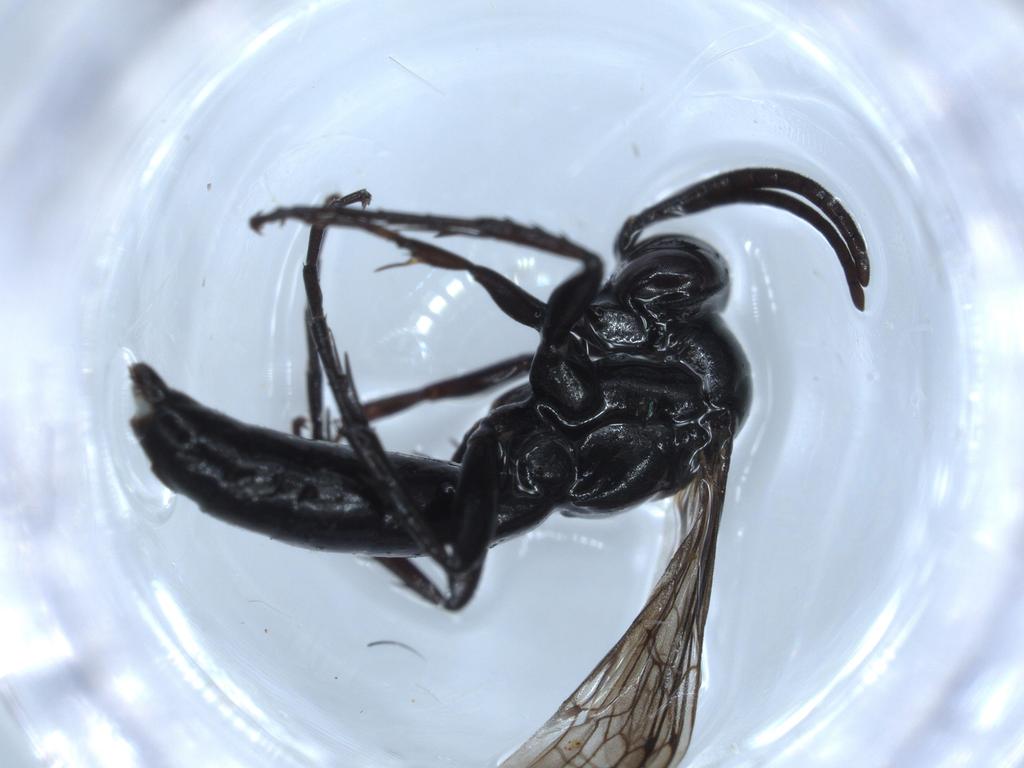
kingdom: Animalia
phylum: Arthropoda
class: Insecta
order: Hymenoptera
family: Pompilidae
